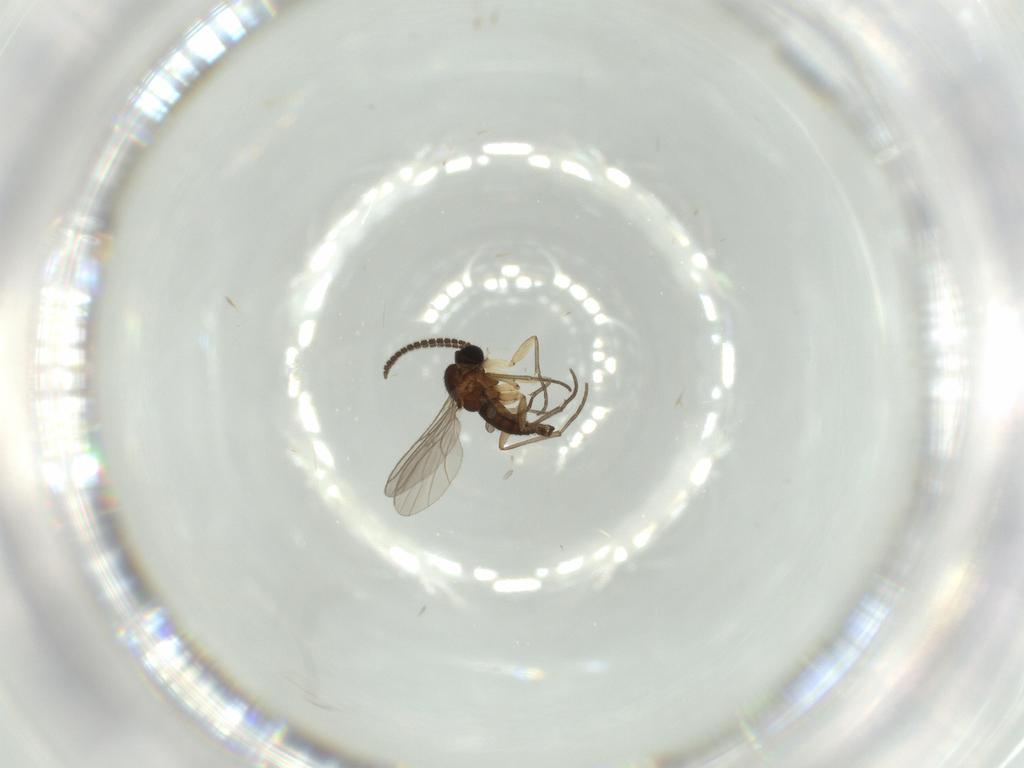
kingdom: Animalia
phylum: Arthropoda
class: Insecta
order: Diptera
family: Sciaridae
